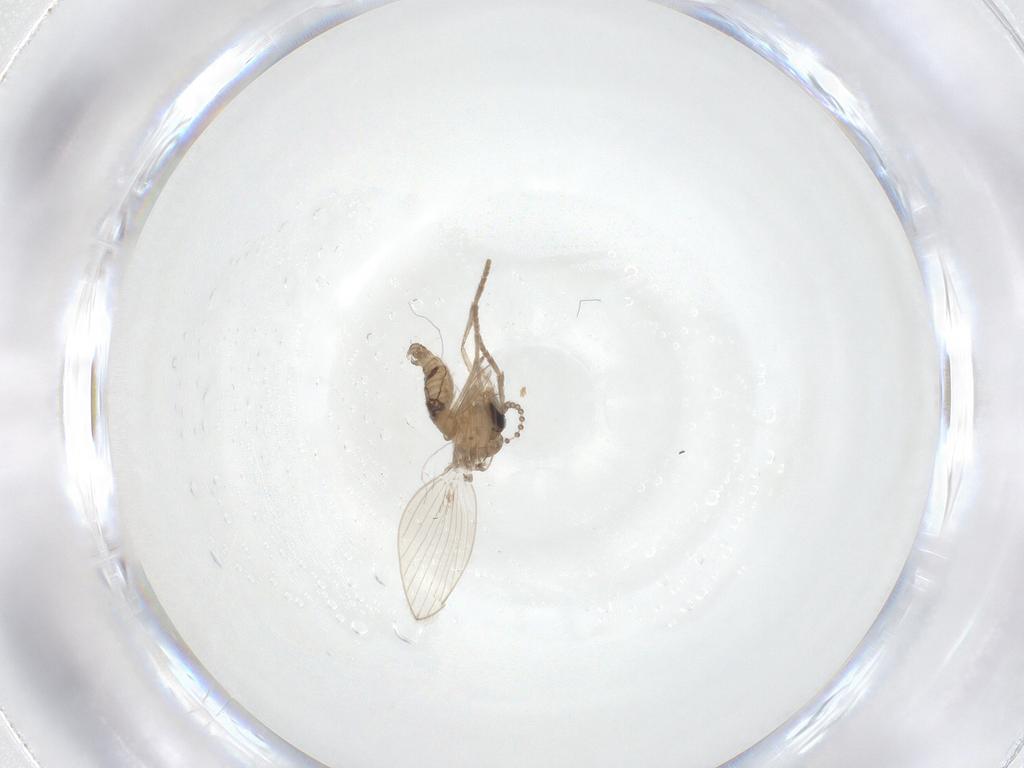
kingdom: Animalia
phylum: Arthropoda
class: Insecta
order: Diptera
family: Psychodidae
